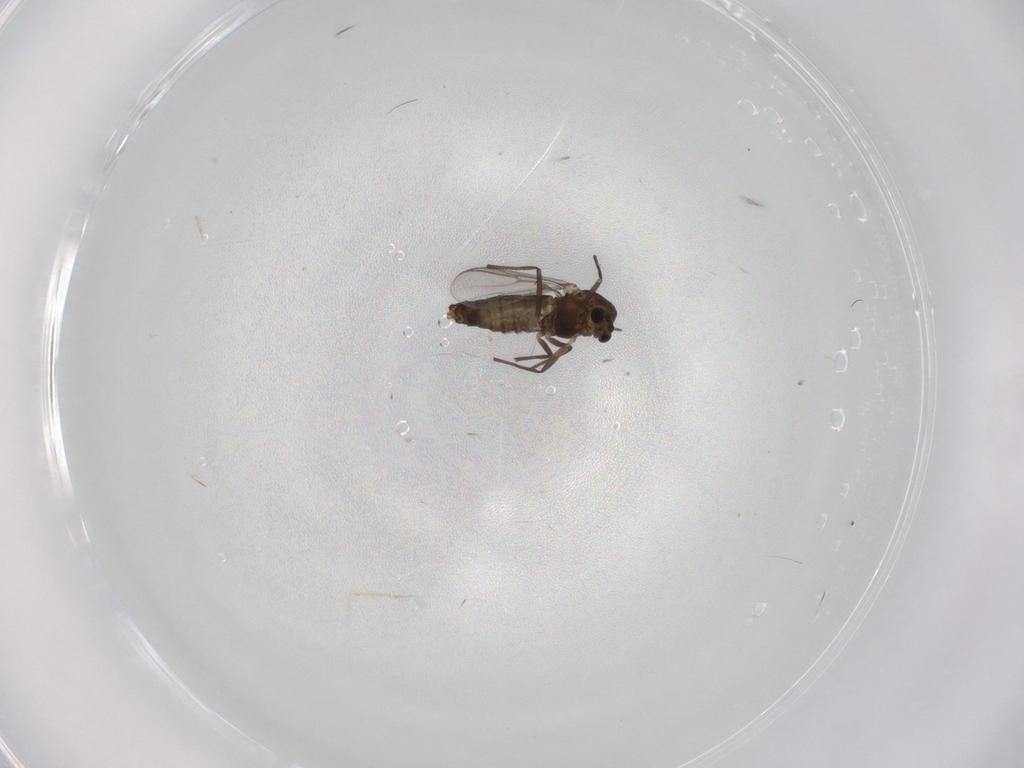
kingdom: Animalia
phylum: Arthropoda
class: Insecta
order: Diptera
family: Chironomidae
